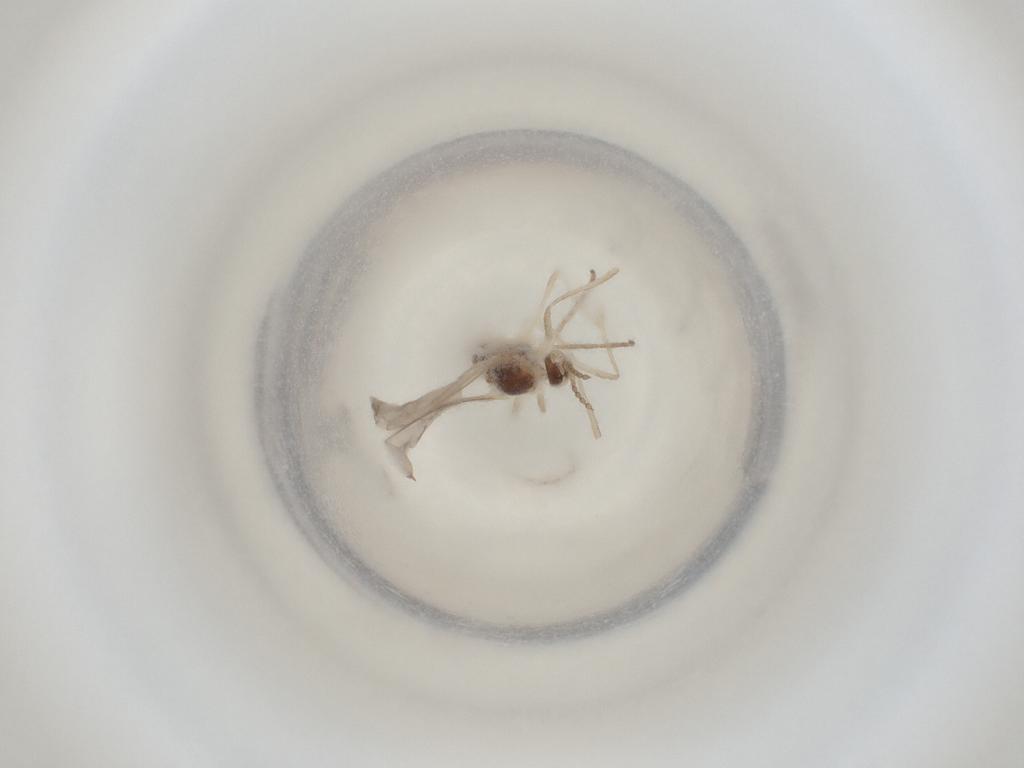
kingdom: Animalia
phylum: Arthropoda
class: Insecta
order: Diptera
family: Cecidomyiidae
